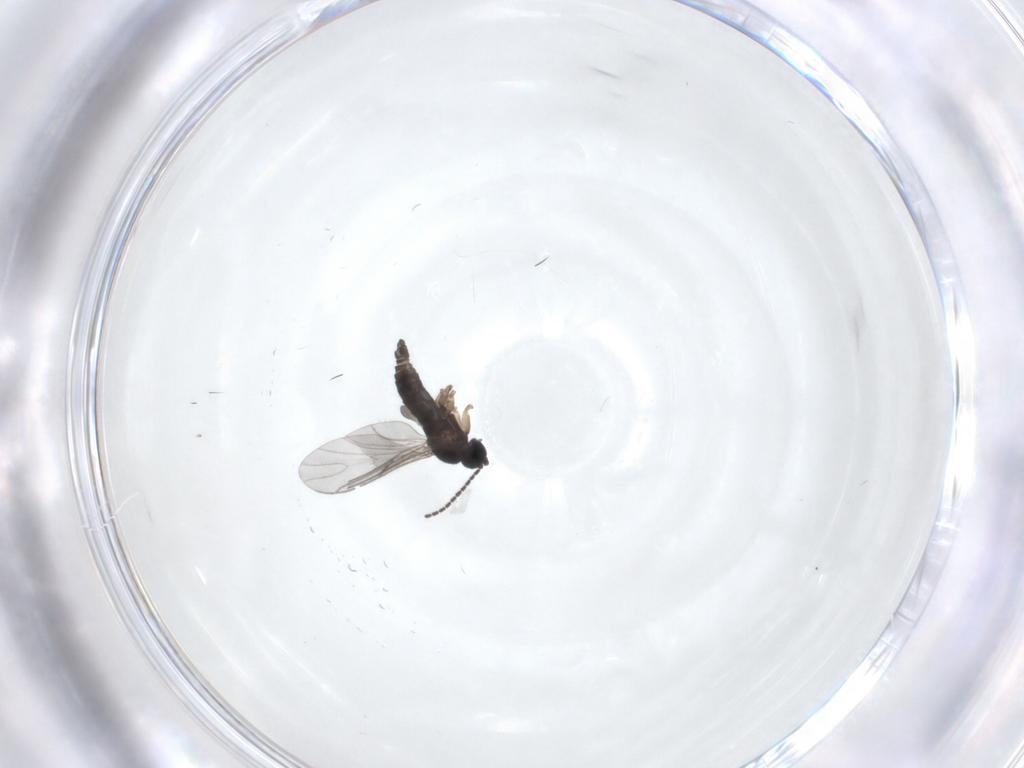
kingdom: Animalia
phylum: Arthropoda
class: Insecta
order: Diptera
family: Sciaridae
